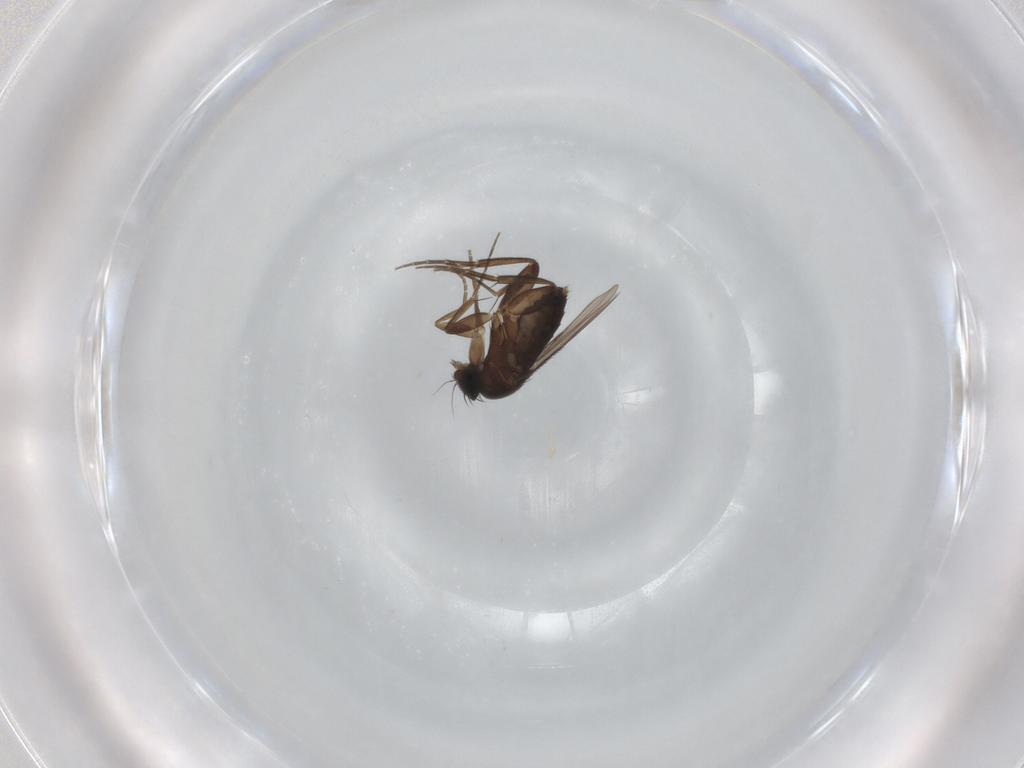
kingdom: Animalia
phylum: Arthropoda
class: Insecta
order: Diptera
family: Phoridae
